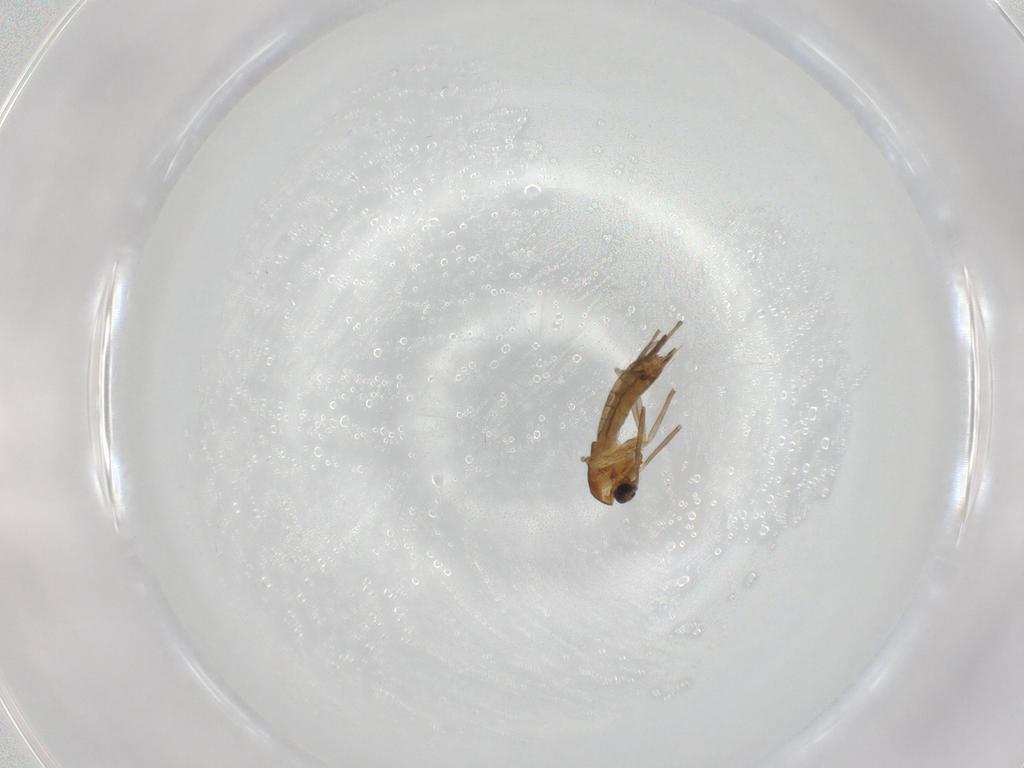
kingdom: Animalia
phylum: Arthropoda
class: Insecta
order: Diptera
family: Chironomidae
